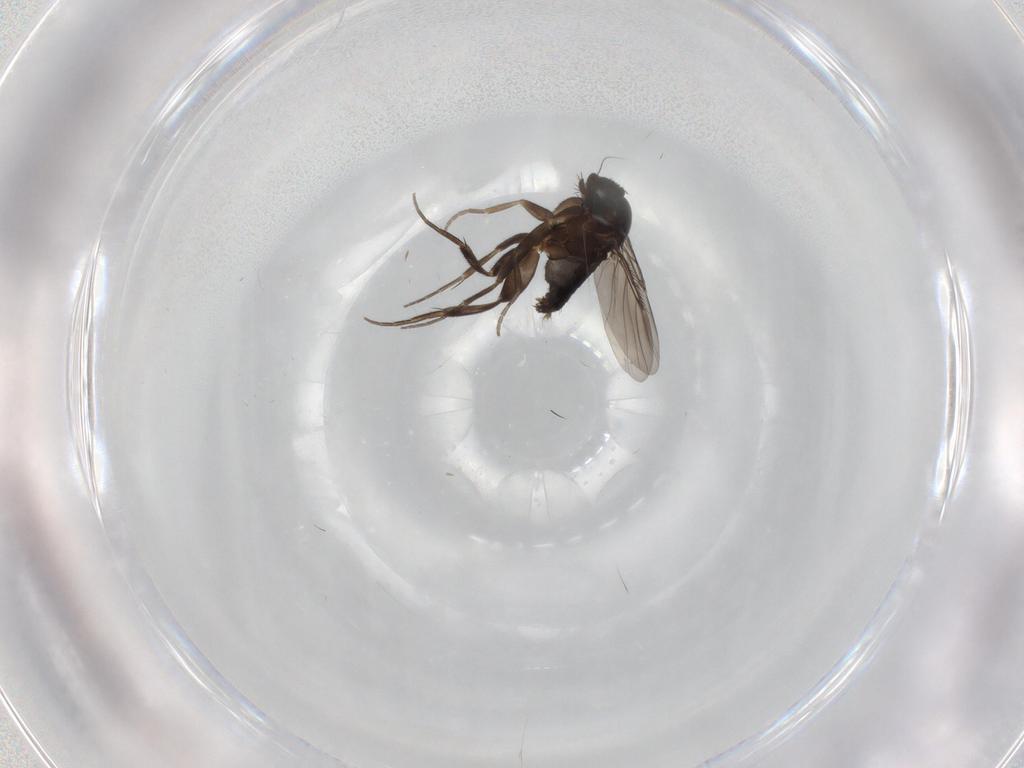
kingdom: Animalia
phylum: Arthropoda
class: Insecta
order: Diptera
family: Phoridae
